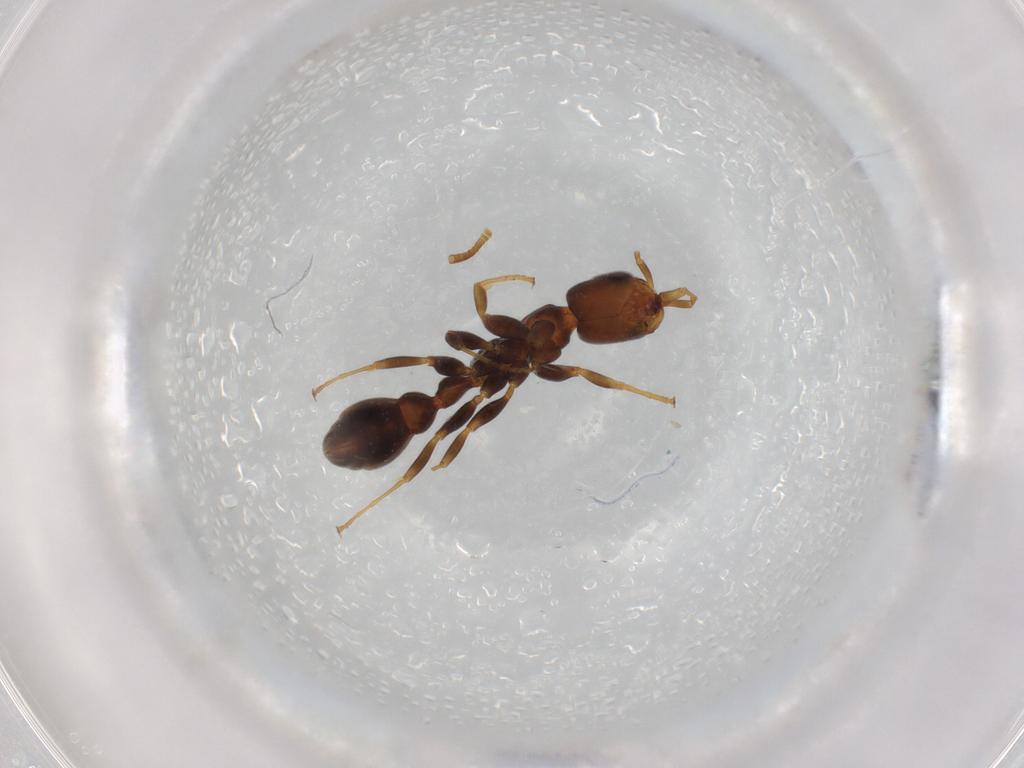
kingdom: Animalia
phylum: Arthropoda
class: Insecta
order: Hymenoptera
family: Formicidae
